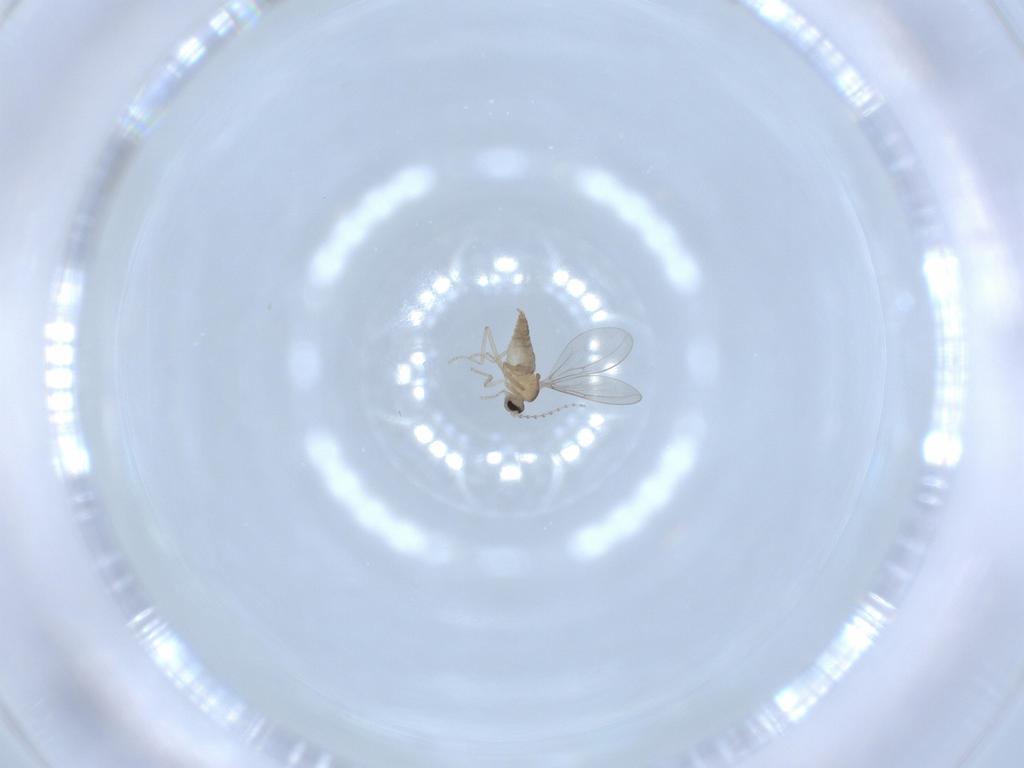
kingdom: Animalia
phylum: Arthropoda
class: Insecta
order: Diptera
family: Cecidomyiidae
